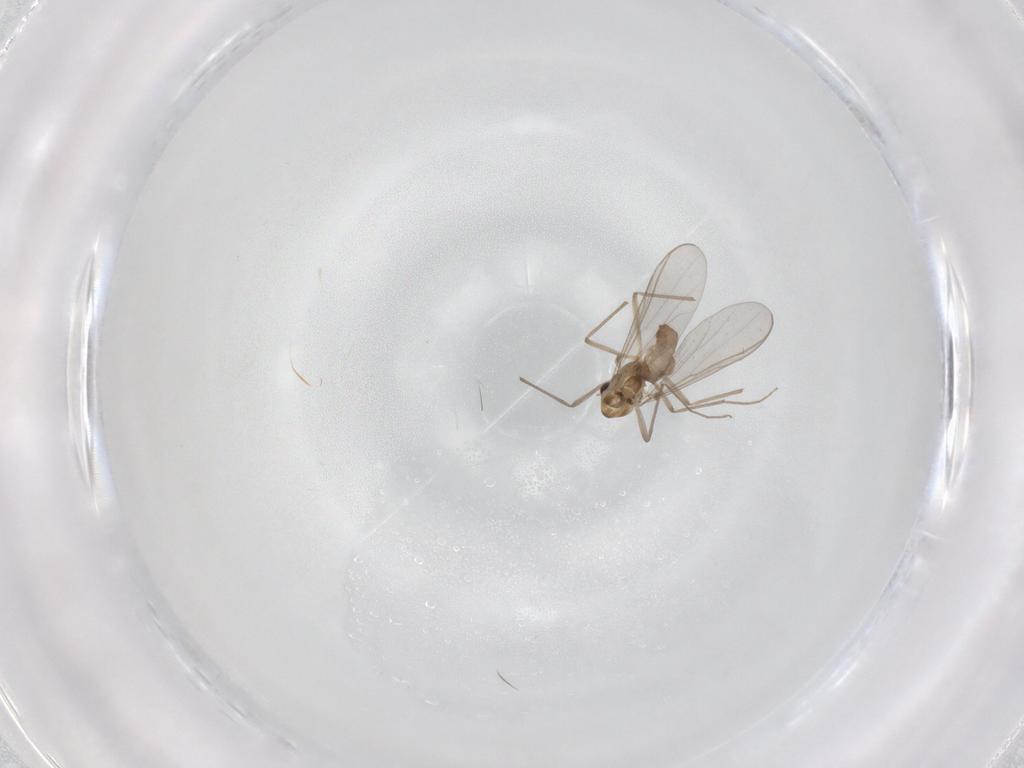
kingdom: Animalia
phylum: Arthropoda
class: Insecta
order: Diptera
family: Chironomidae
